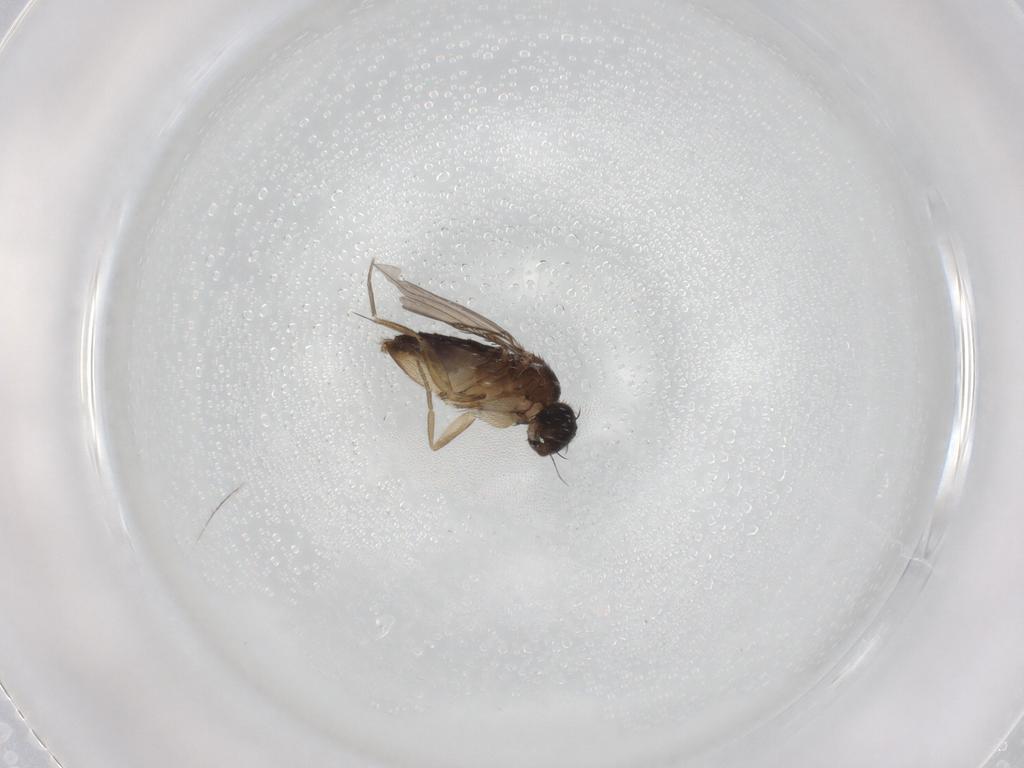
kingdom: Animalia
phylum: Arthropoda
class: Insecta
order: Diptera
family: Phoridae
